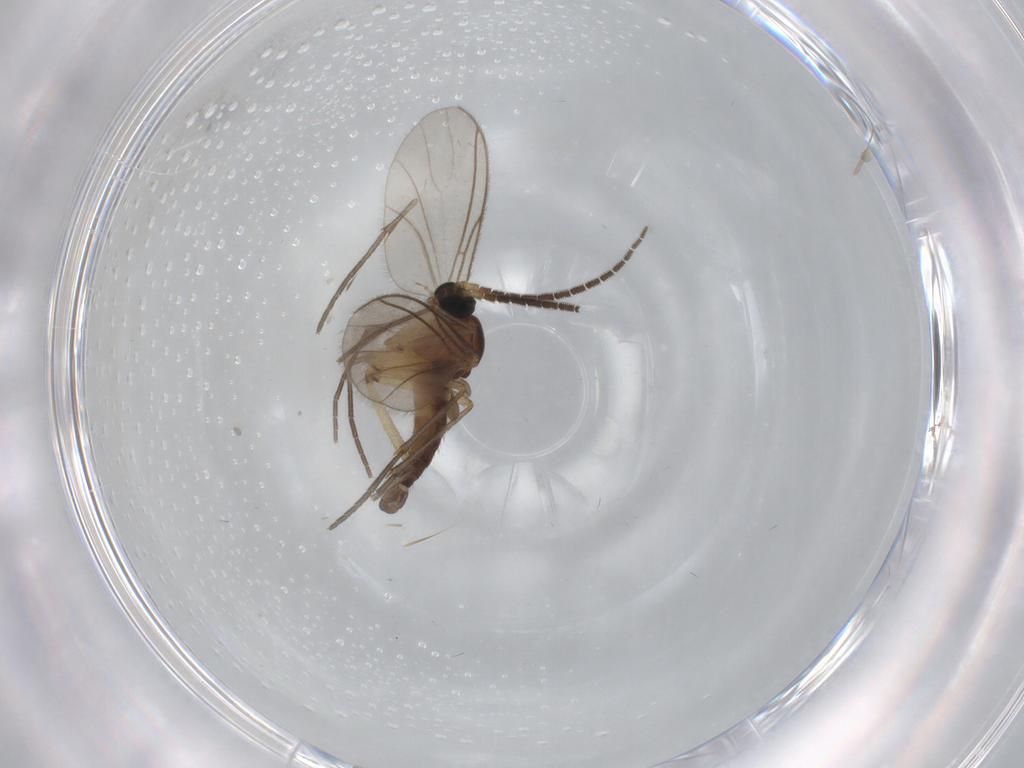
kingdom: Animalia
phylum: Arthropoda
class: Insecta
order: Diptera
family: Sciaridae
